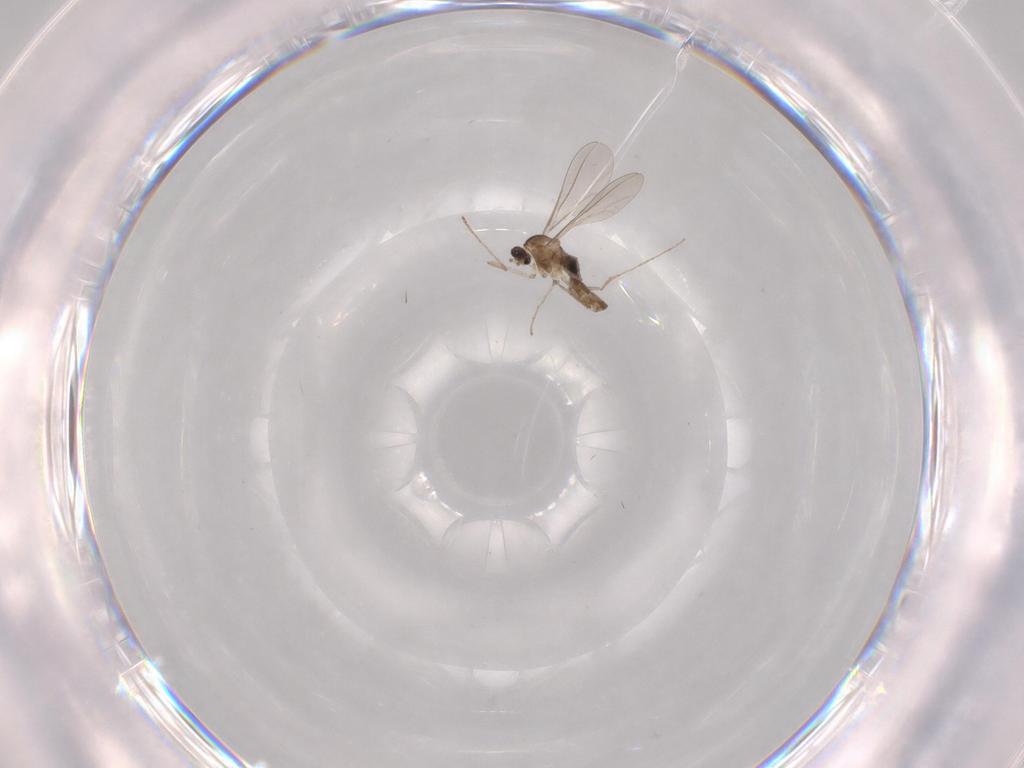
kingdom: Animalia
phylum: Arthropoda
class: Insecta
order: Diptera
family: Sciaridae
